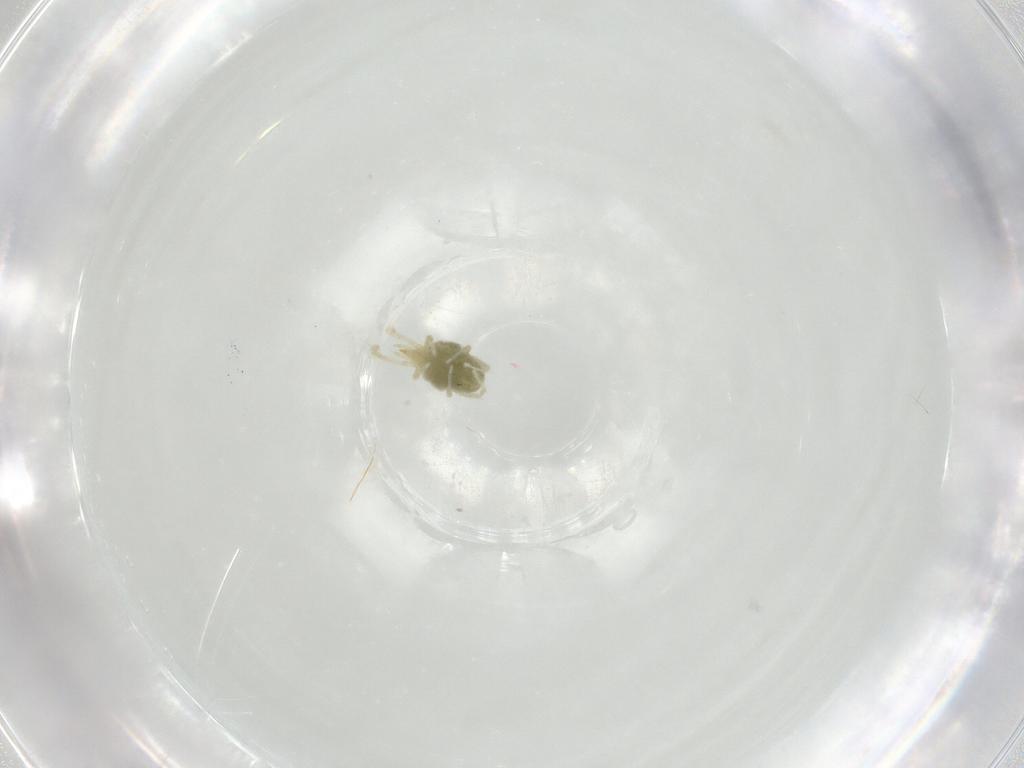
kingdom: Animalia
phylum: Arthropoda
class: Arachnida
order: Trombidiformes
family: Erythraeidae
